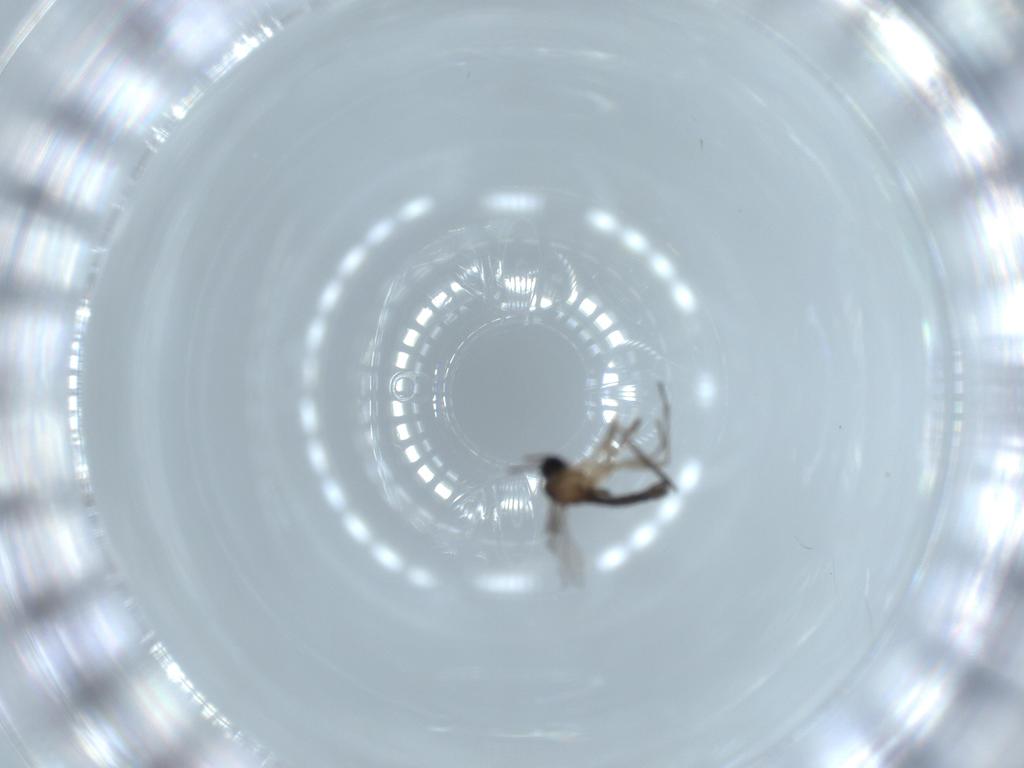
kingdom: Animalia
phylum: Arthropoda
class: Insecta
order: Diptera
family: Sciaridae
